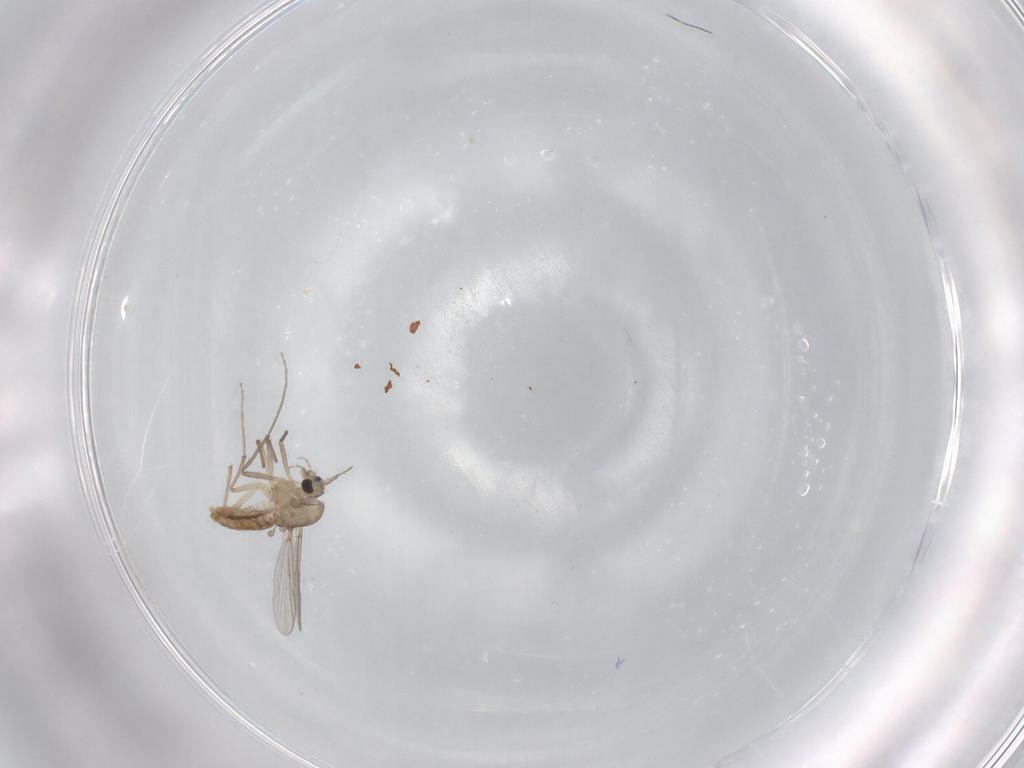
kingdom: Animalia
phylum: Arthropoda
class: Insecta
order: Diptera
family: Chironomidae
